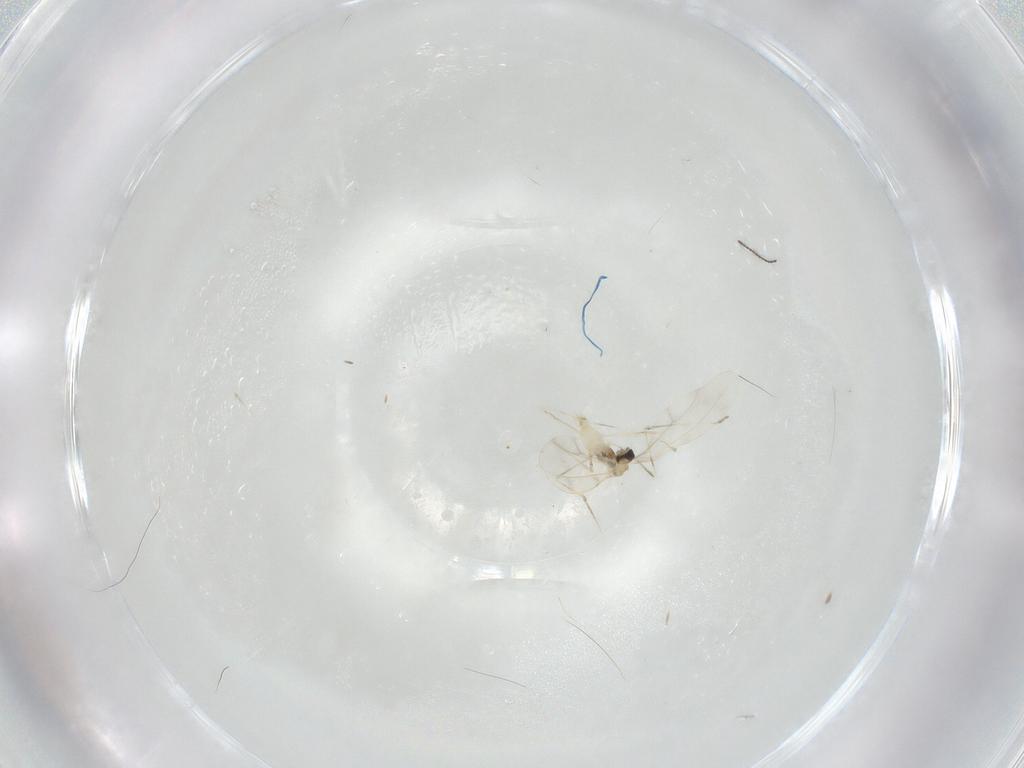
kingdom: Animalia
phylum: Arthropoda
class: Insecta
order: Diptera
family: Cecidomyiidae
